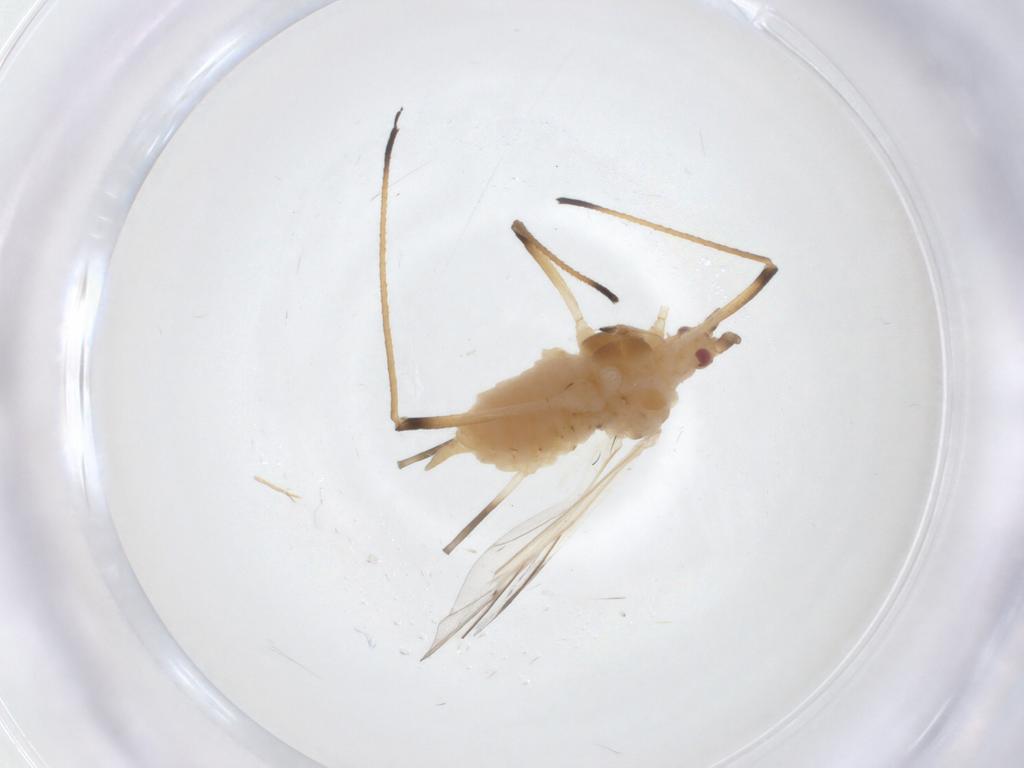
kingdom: Animalia
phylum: Arthropoda
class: Insecta
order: Hemiptera
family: Aphididae
